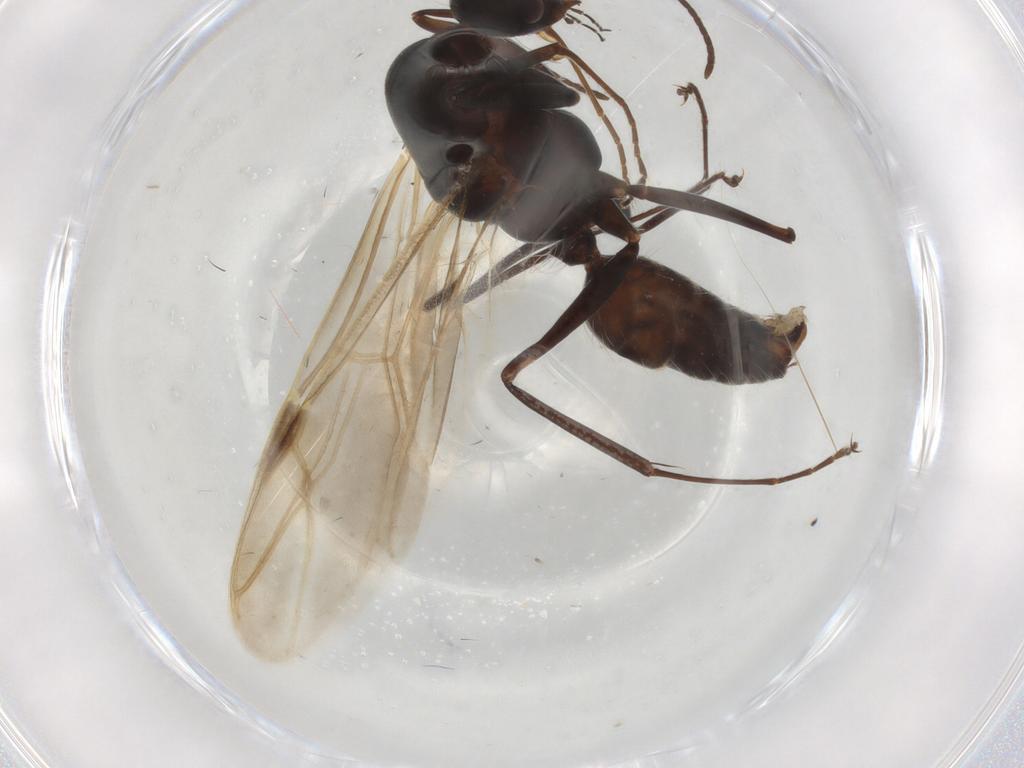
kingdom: Animalia
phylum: Arthropoda
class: Insecta
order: Hymenoptera
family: Formicidae
